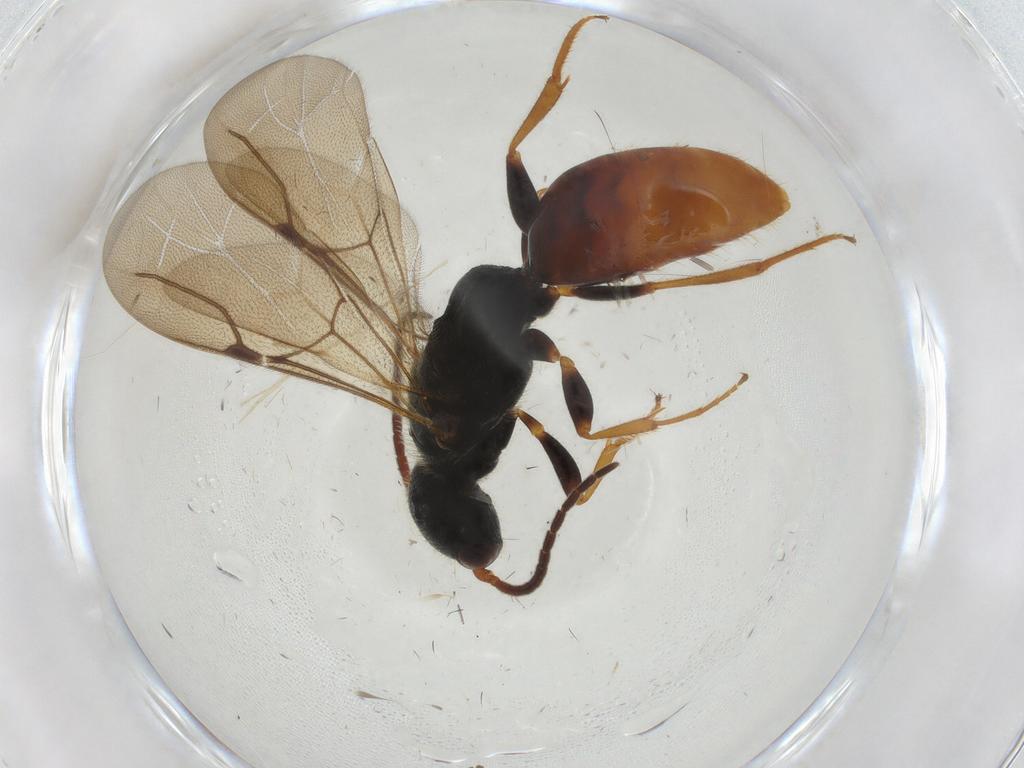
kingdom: Animalia
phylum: Arthropoda
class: Insecta
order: Hymenoptera
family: Bethylidae
